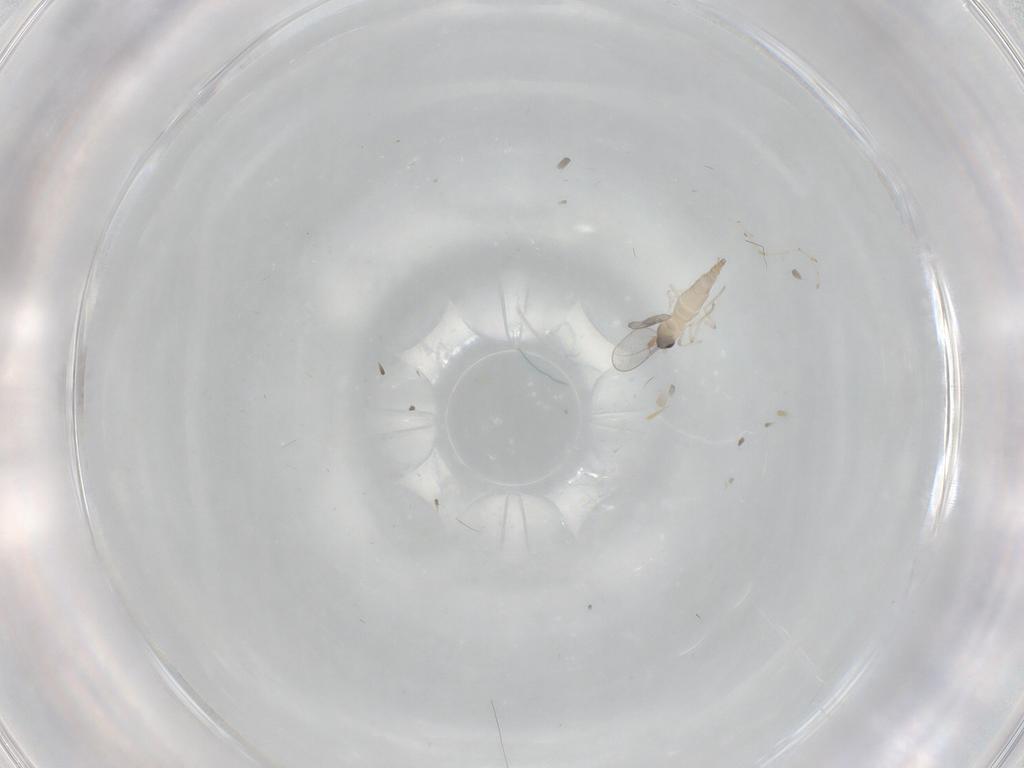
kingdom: Animalia
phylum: Arthropoda
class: Insecta
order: Diptera
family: Cecidomyiidae
